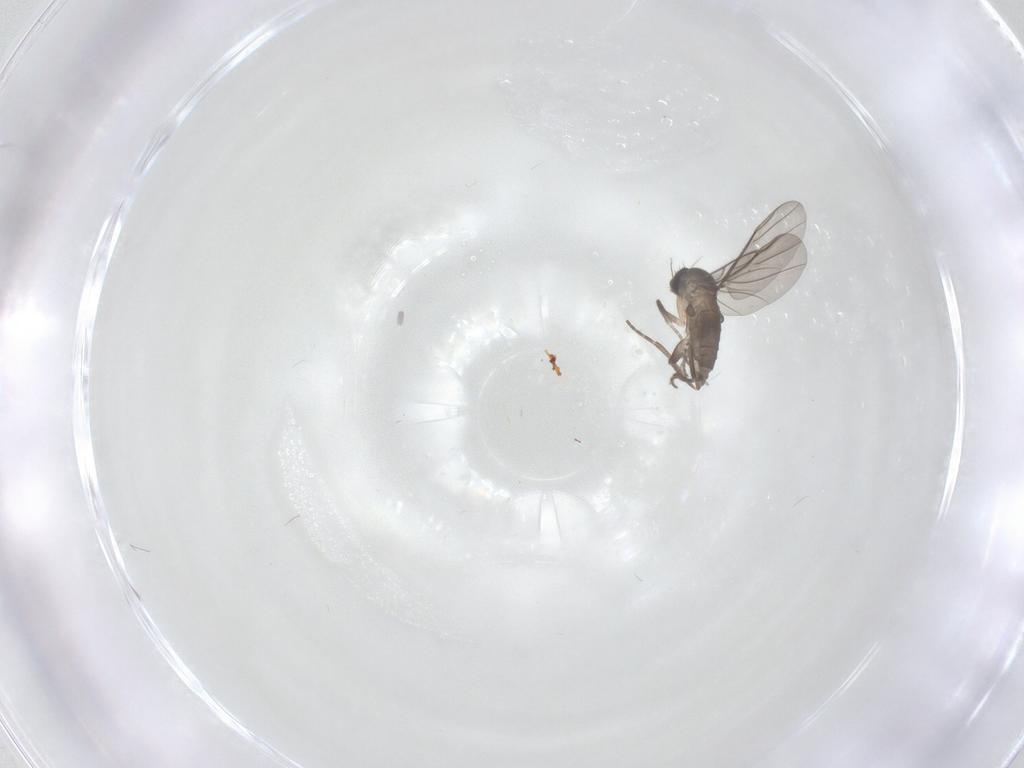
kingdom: Animalia
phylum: Arthropoda
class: Insecta
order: Diptera
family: Phoridae
